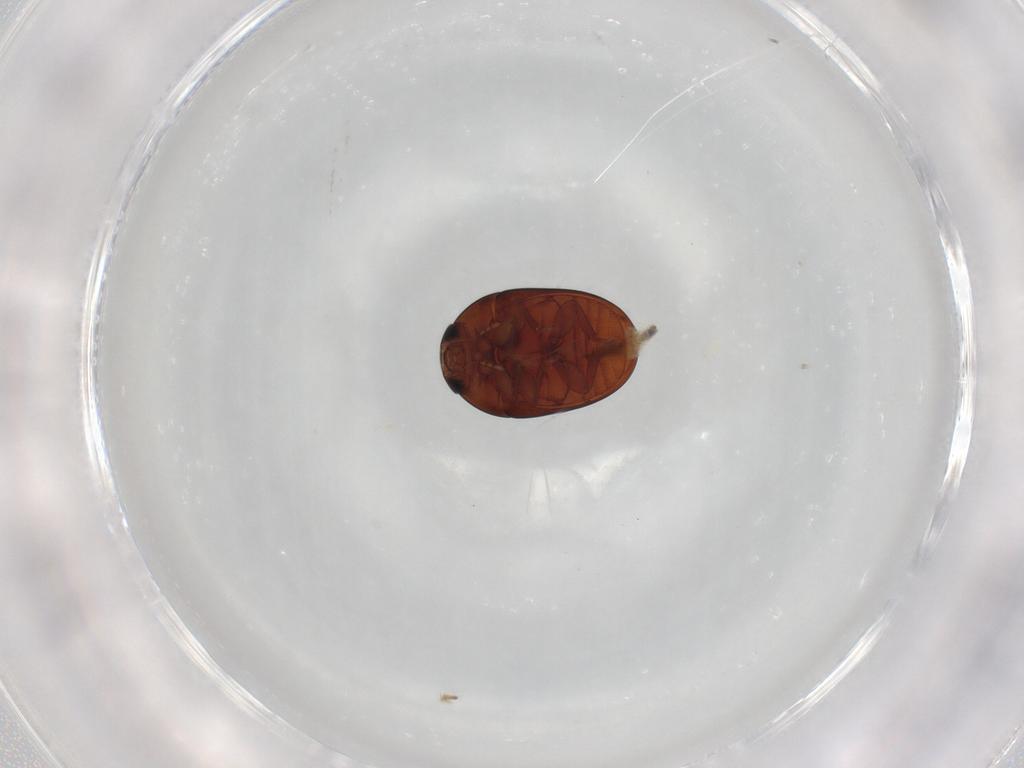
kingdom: Animalia
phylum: Arthropoda
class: Insecta
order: Coleoptera
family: Phalacridae
